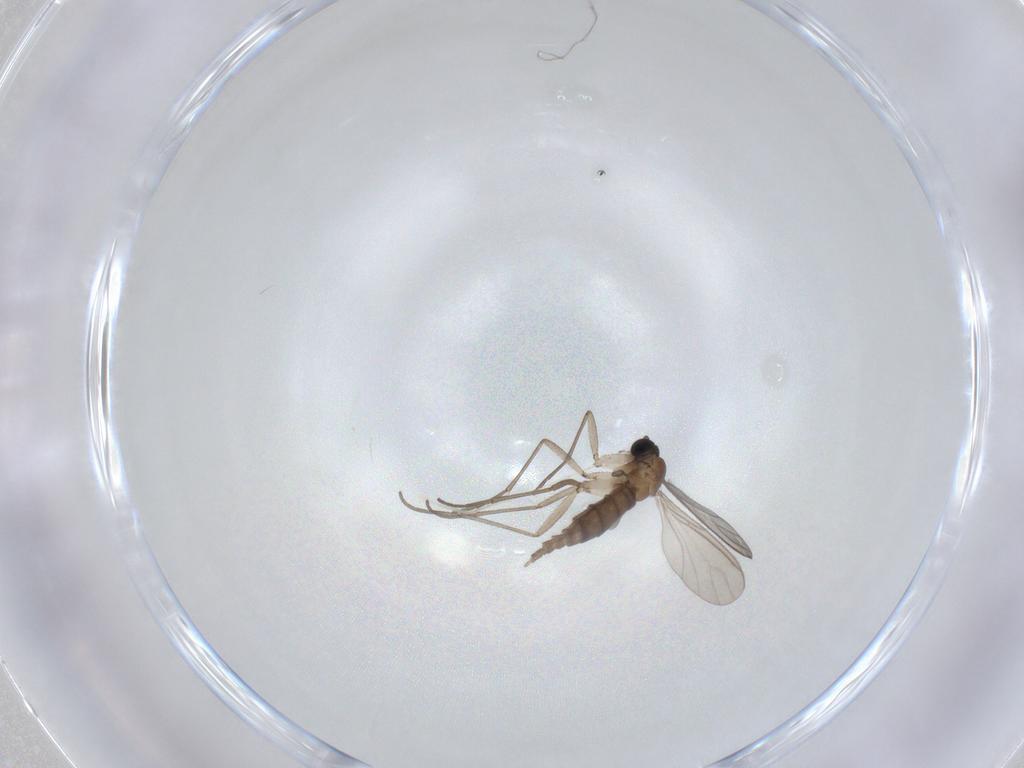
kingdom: Animalia
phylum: Arthropoda
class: Insecta
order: Diptera
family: Sciaridae
